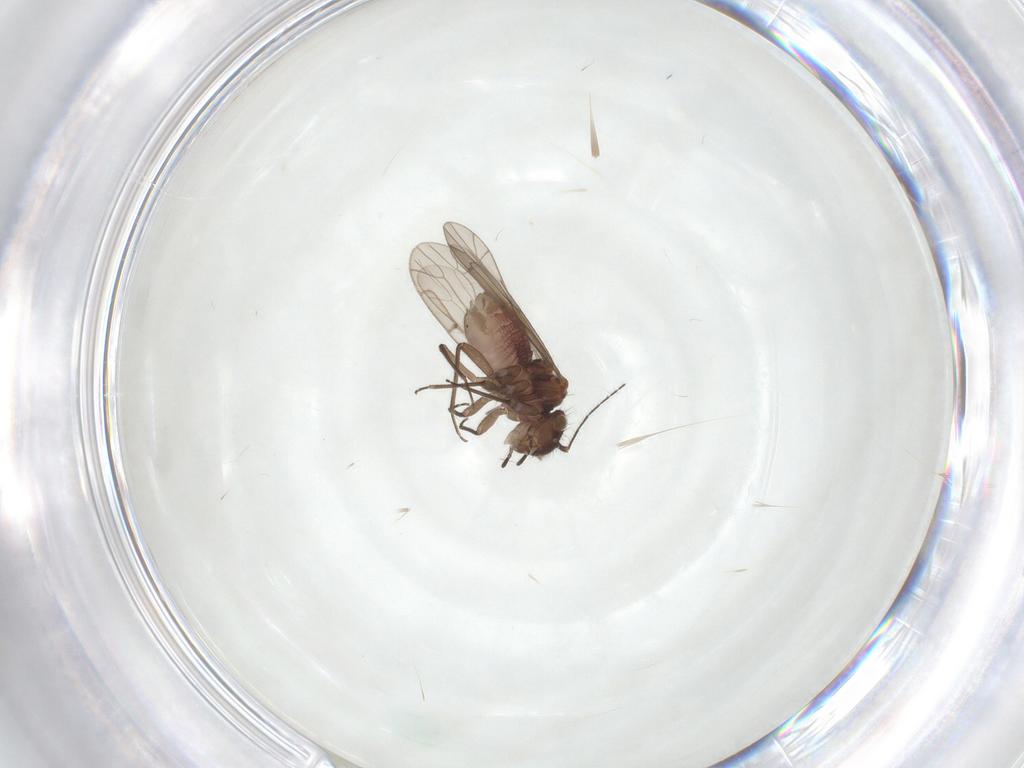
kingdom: Animalia
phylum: Arthropoda
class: Insecta
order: Psocodea
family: Ectopsocidae
